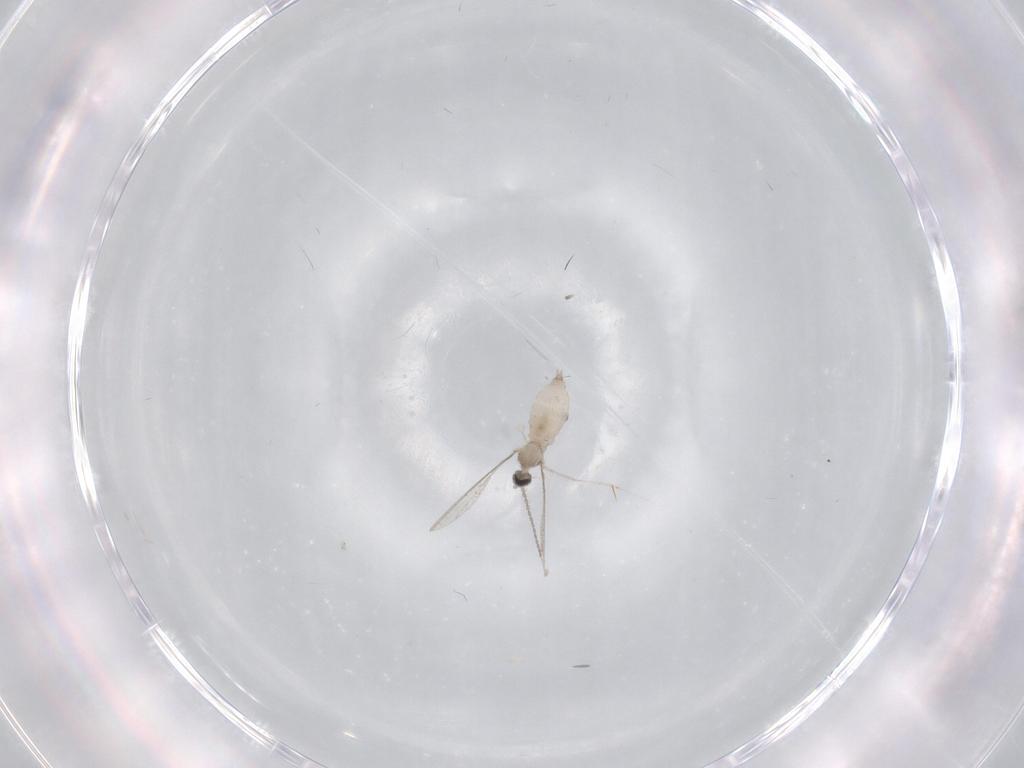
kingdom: Animalia
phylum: Arthropoda
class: Insecta
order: Diptera
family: Cecidomyiidae
